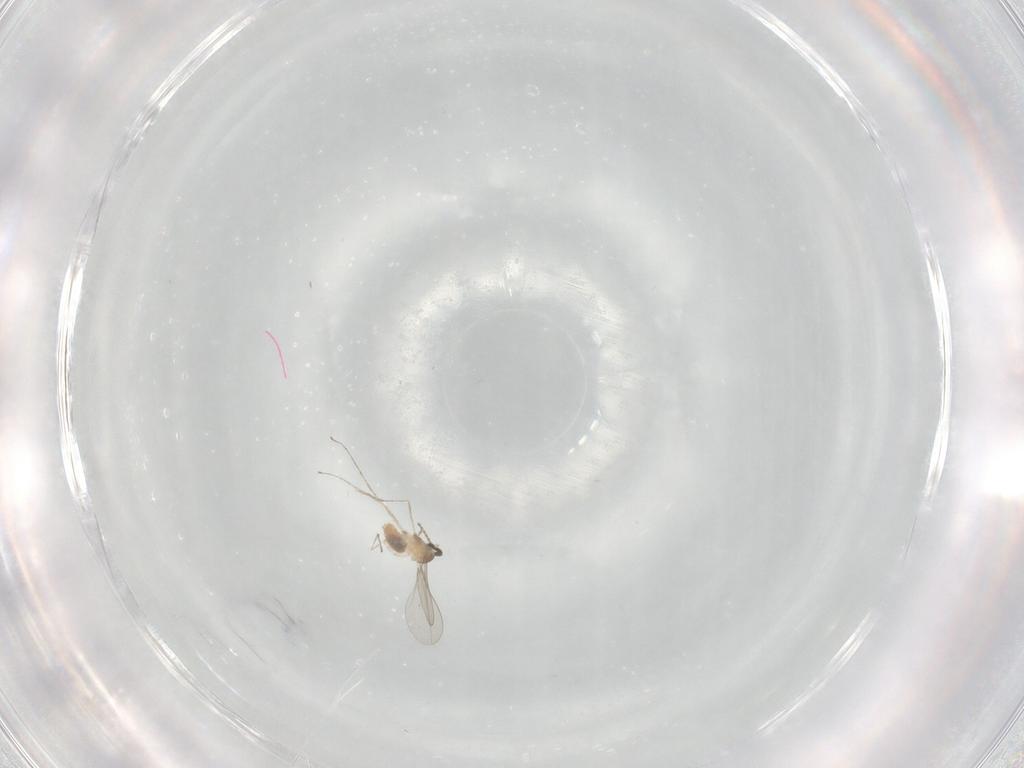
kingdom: Animalia
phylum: Arthropoda
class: Insecta
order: Diptera
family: Cecidomyiidae
